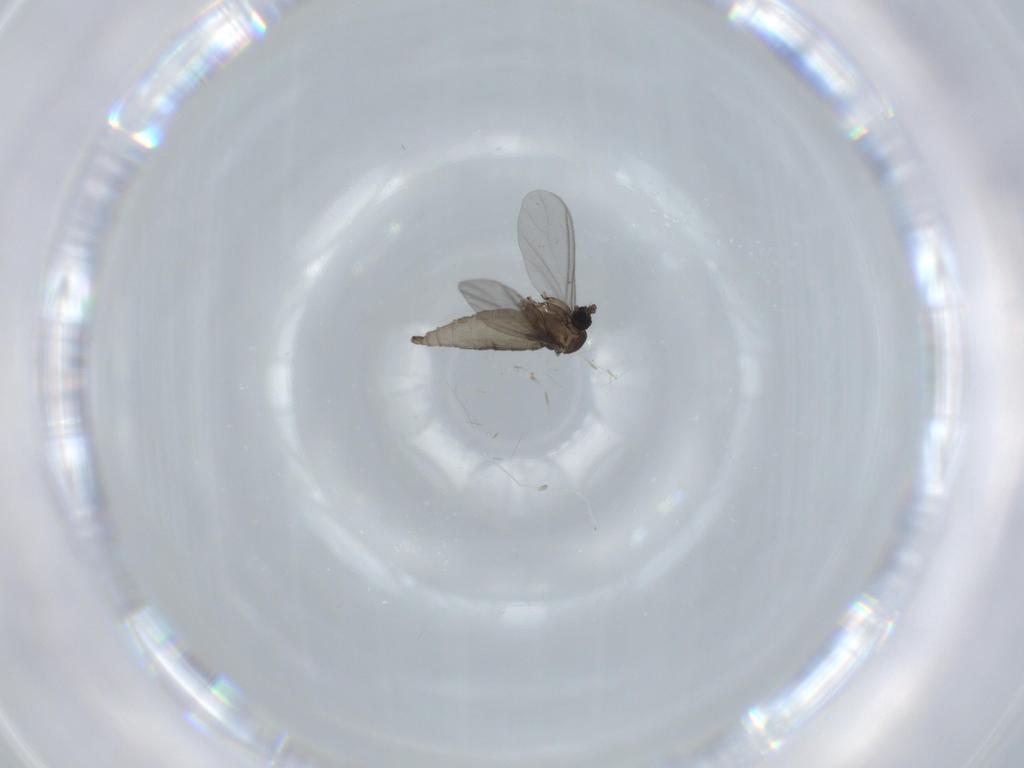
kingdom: Animalia
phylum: Arthropoda
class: Insecta
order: Diptera
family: Sciaridae
